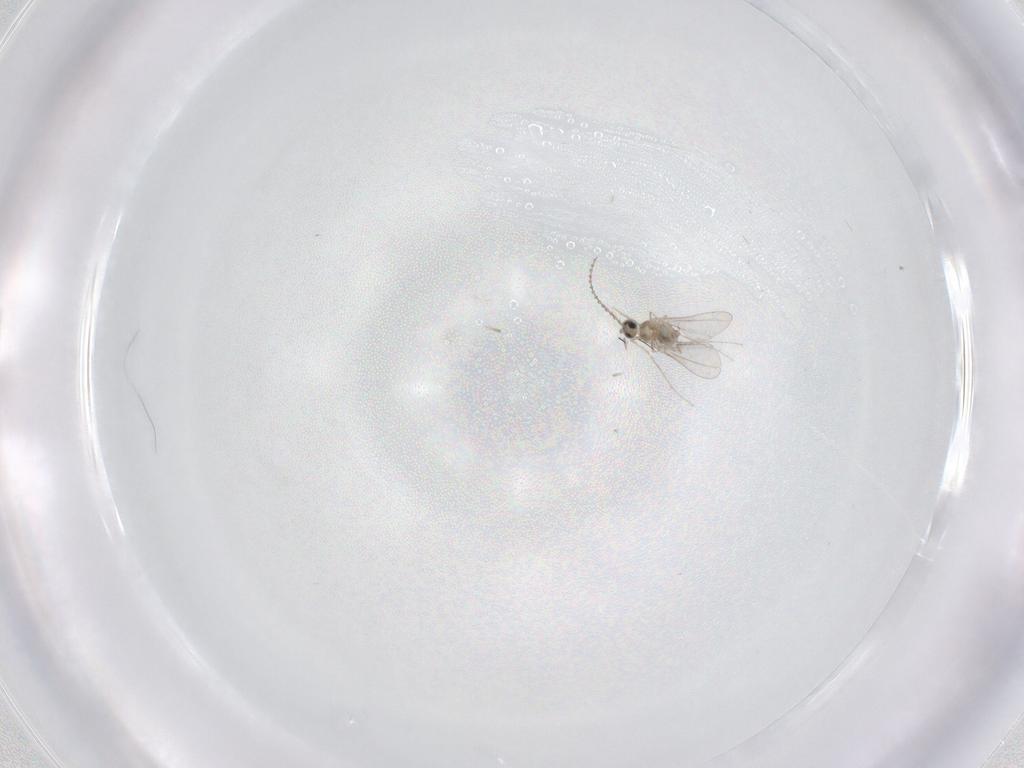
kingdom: Animalia
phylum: Arthropoda
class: Insecta
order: Diptera
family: Cecidomyiidae
